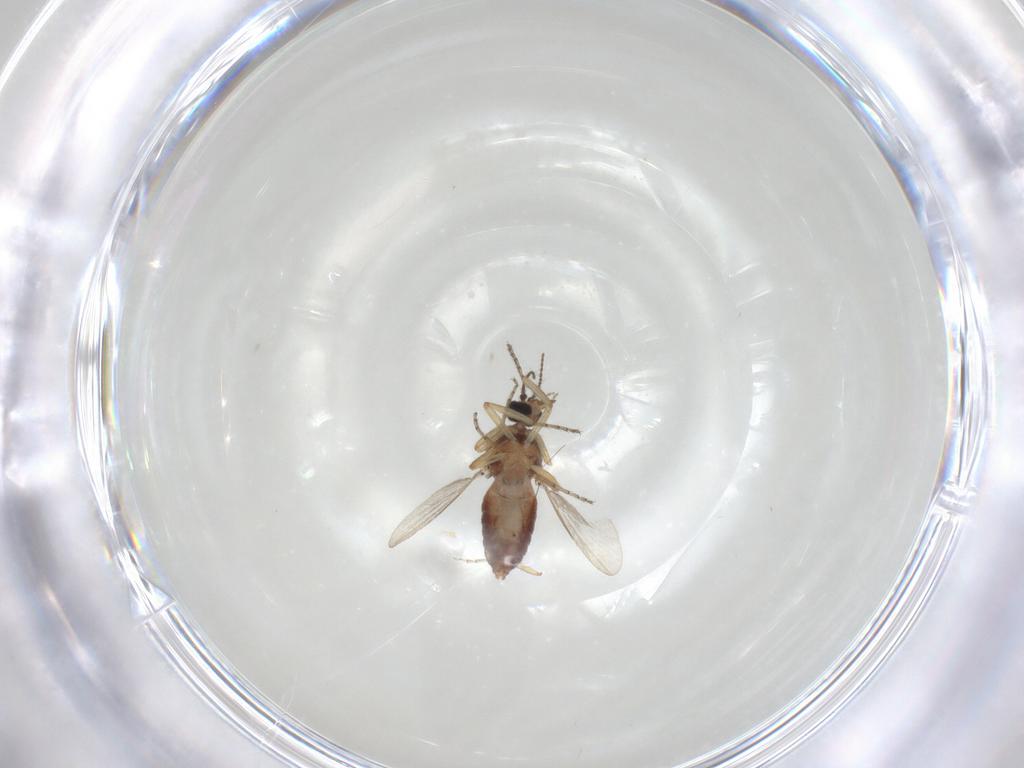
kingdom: Animalia
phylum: Arthropoda
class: Insecta
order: Diptera
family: Ceratopogonidae
